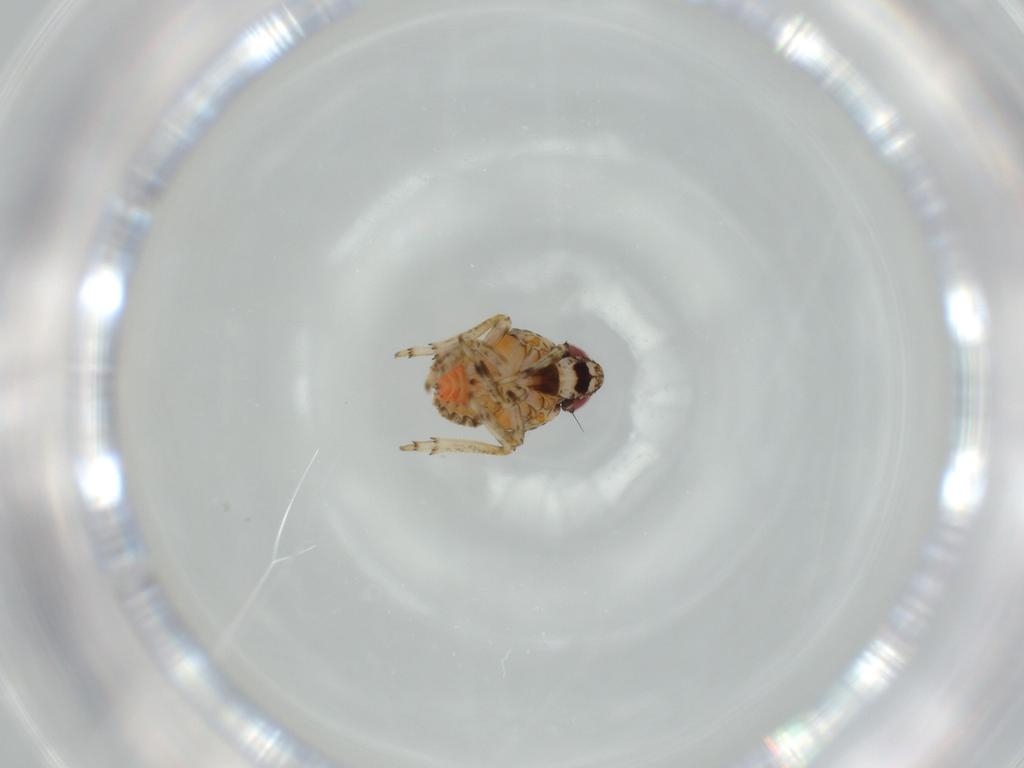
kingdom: Animalia
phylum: Arthropoda
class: Insecta
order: Hemiptera
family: Issidae
